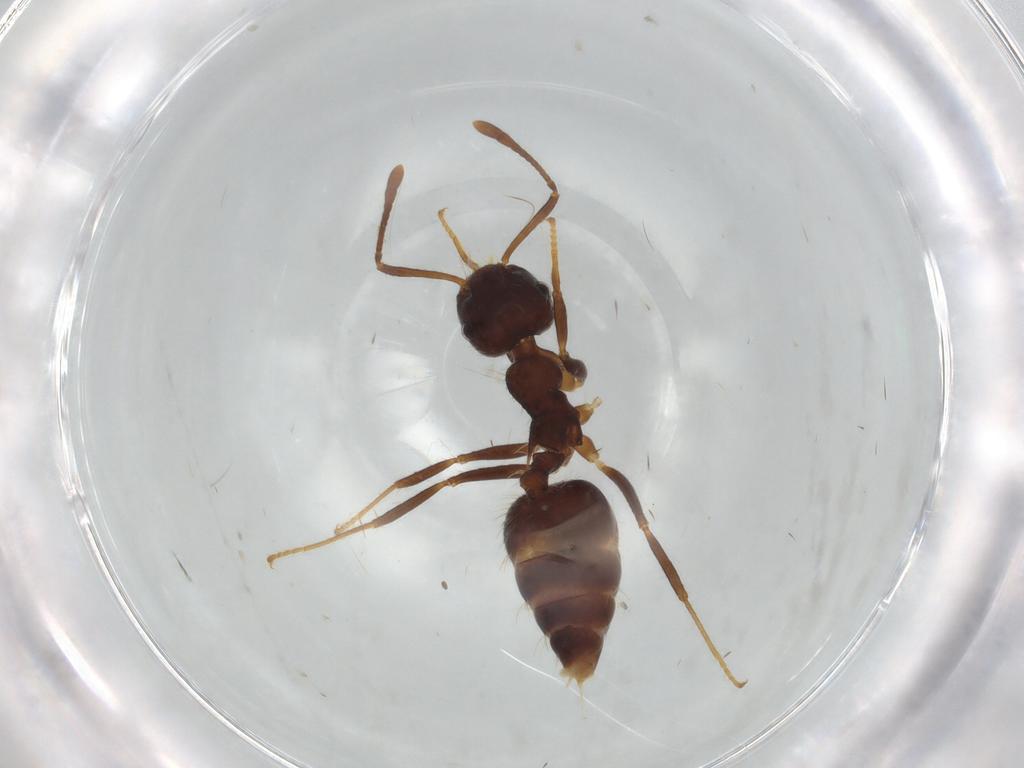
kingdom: Animalia
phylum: Arthropoda
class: Insecta
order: Hymenoptera
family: Formicidae
